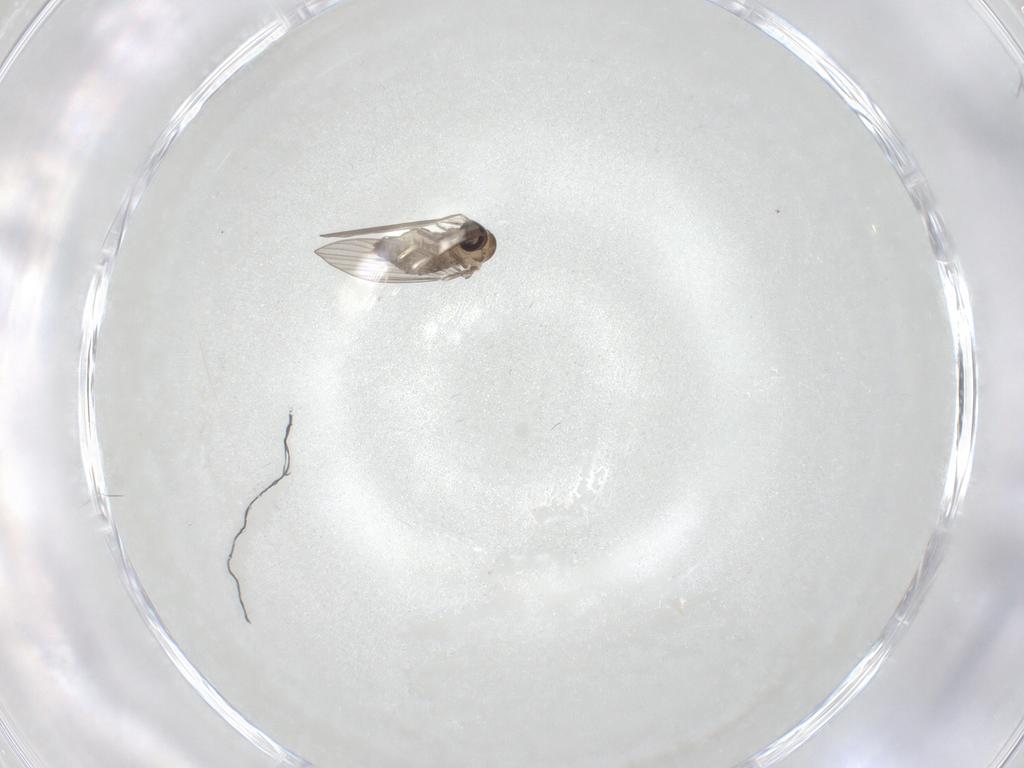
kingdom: Animalia
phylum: Arthropoda
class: Insecta
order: Diptera
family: Psychodidae
